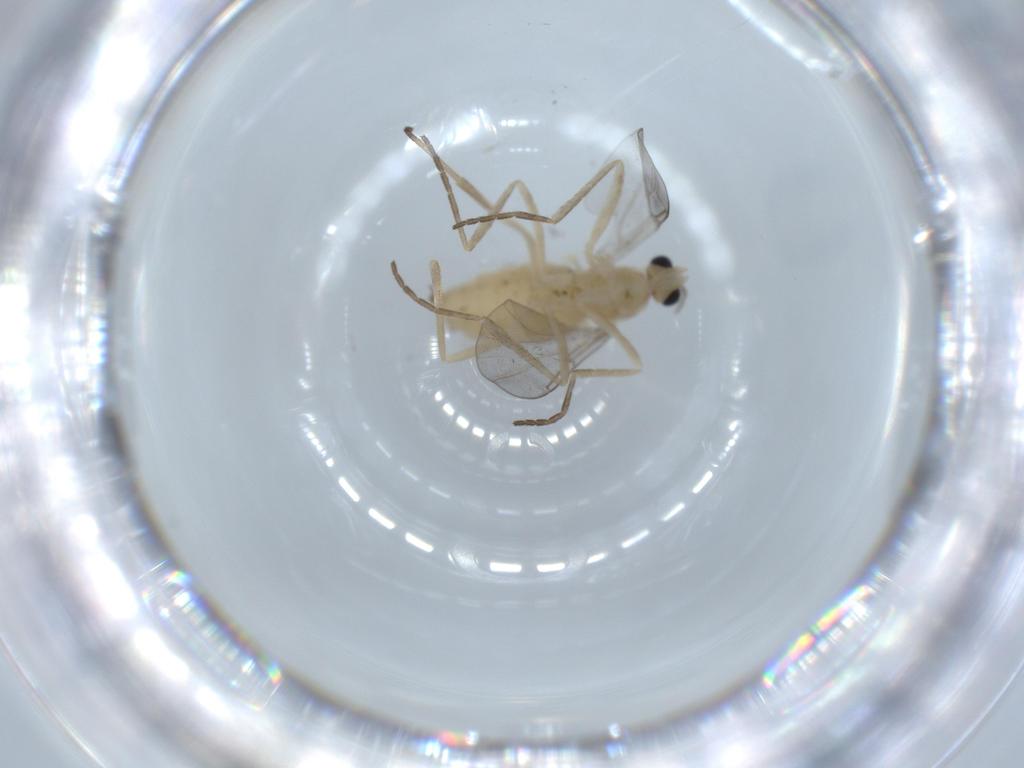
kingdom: Animalia
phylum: Arthropoda
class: Insecta
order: Diptera
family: Cecidomyiidae
